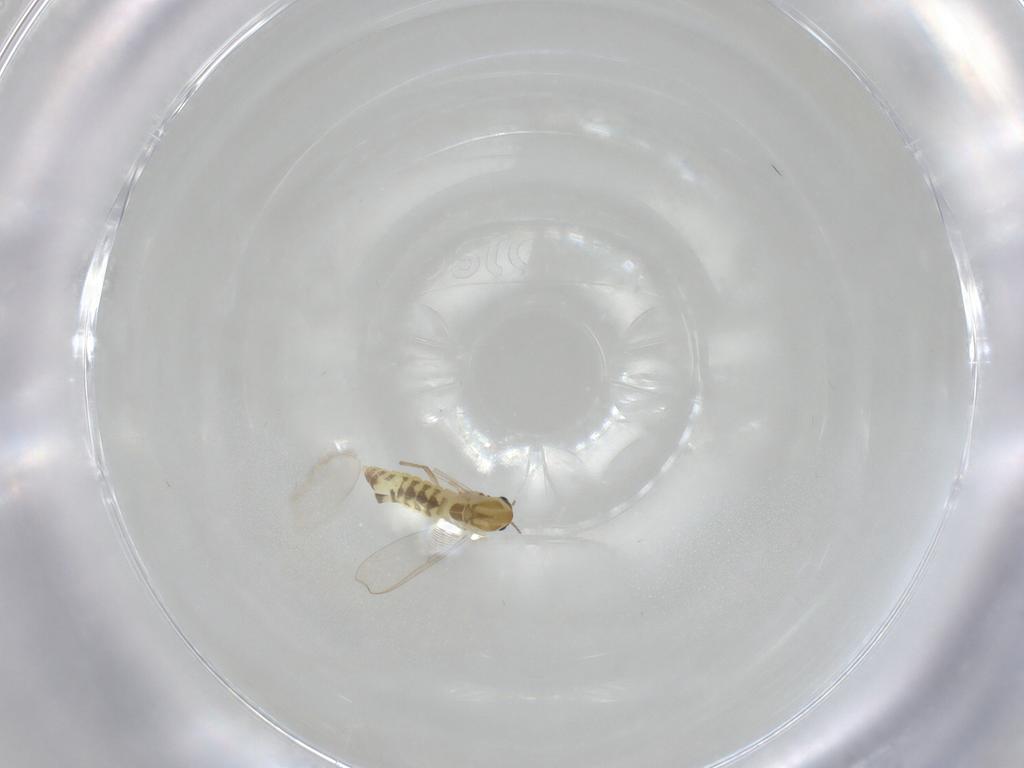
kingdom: Animalia
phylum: Arthropoda
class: Insecta
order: Diptera
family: Chironomidae
